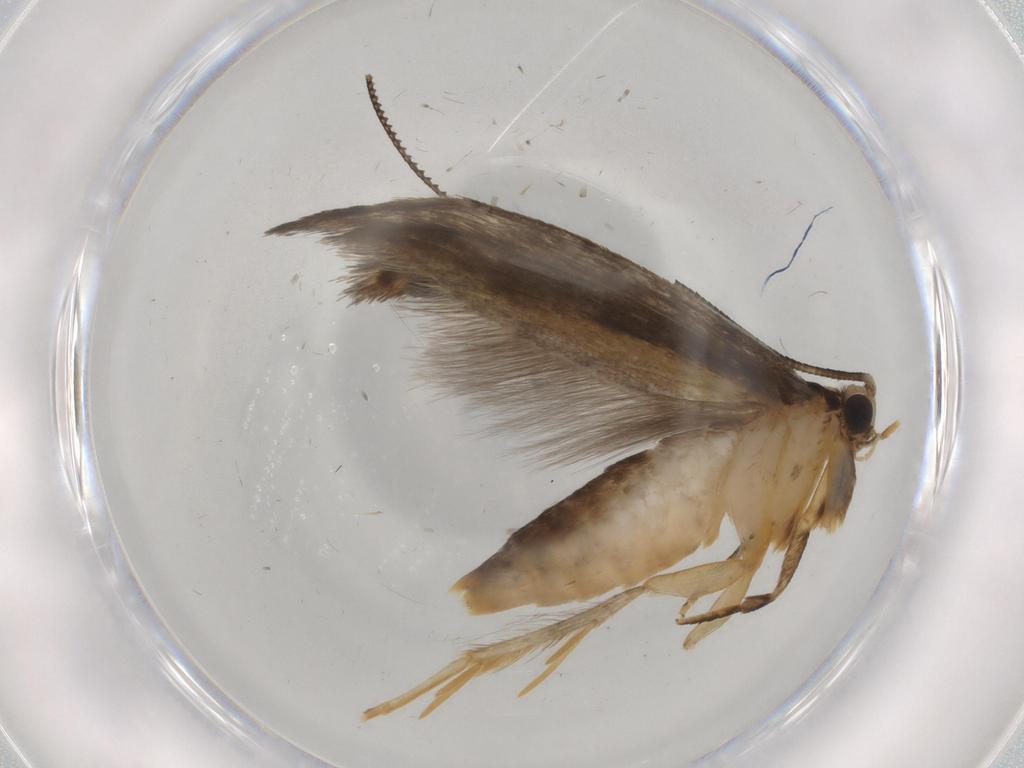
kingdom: Animalia
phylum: Arthropoda
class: Insecta
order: Lepidoptera
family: Tineidae
